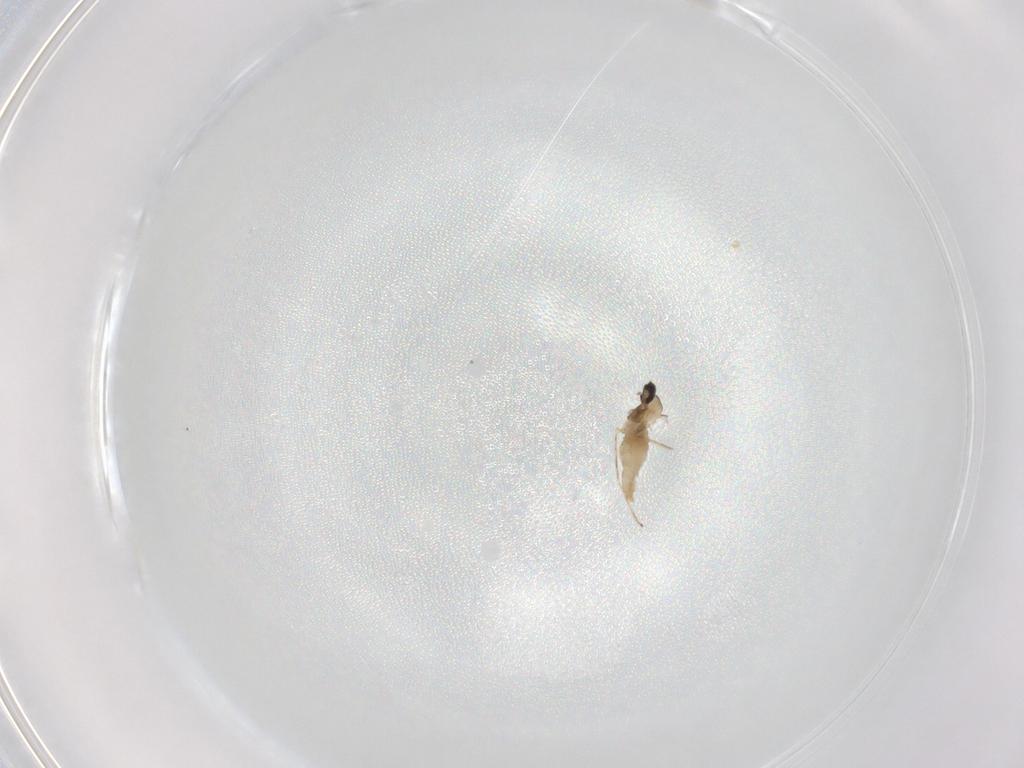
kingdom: Animalia
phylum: Arthropoda
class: Insecta
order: Diptera
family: Cecidomyiidae
